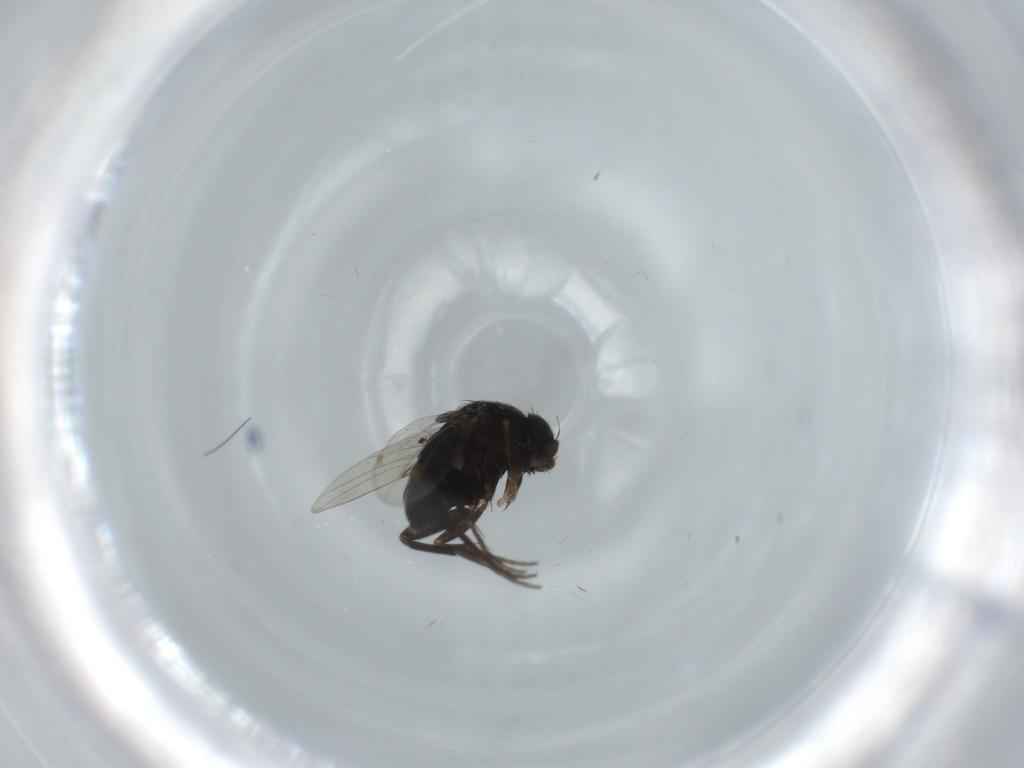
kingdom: Animalia
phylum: Arthropoda
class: Insecta
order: Diptera
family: Phoridae
